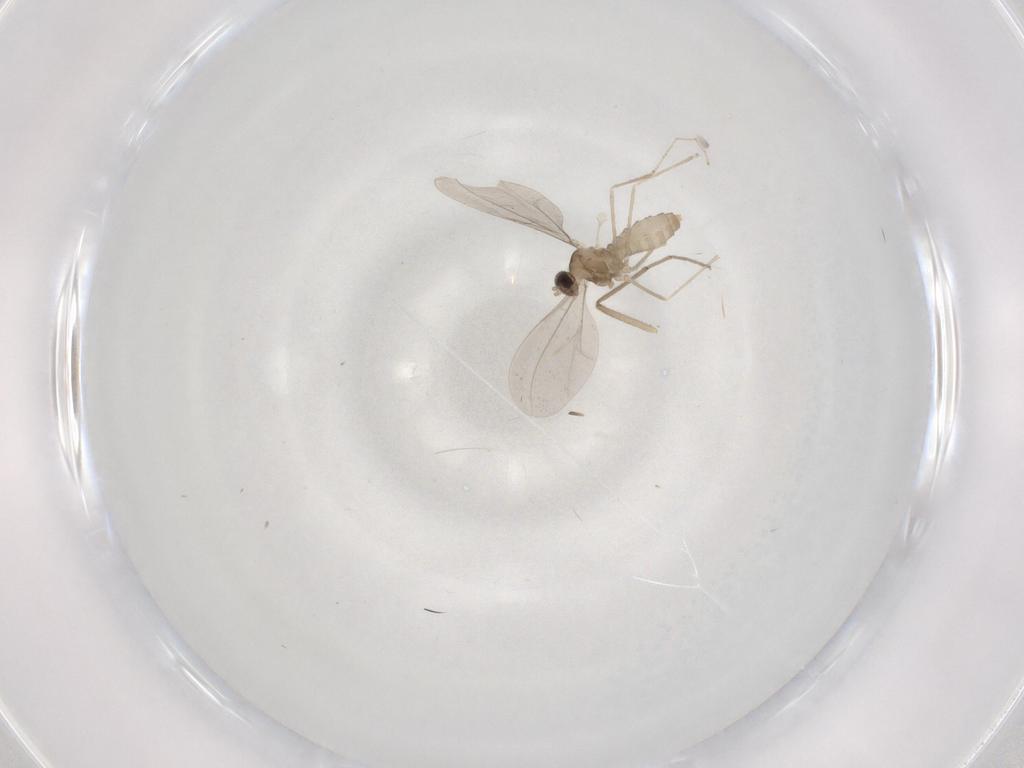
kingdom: Animalia
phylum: Arthropoda
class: Insecta
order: Diptera
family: Cecidomyiidae
